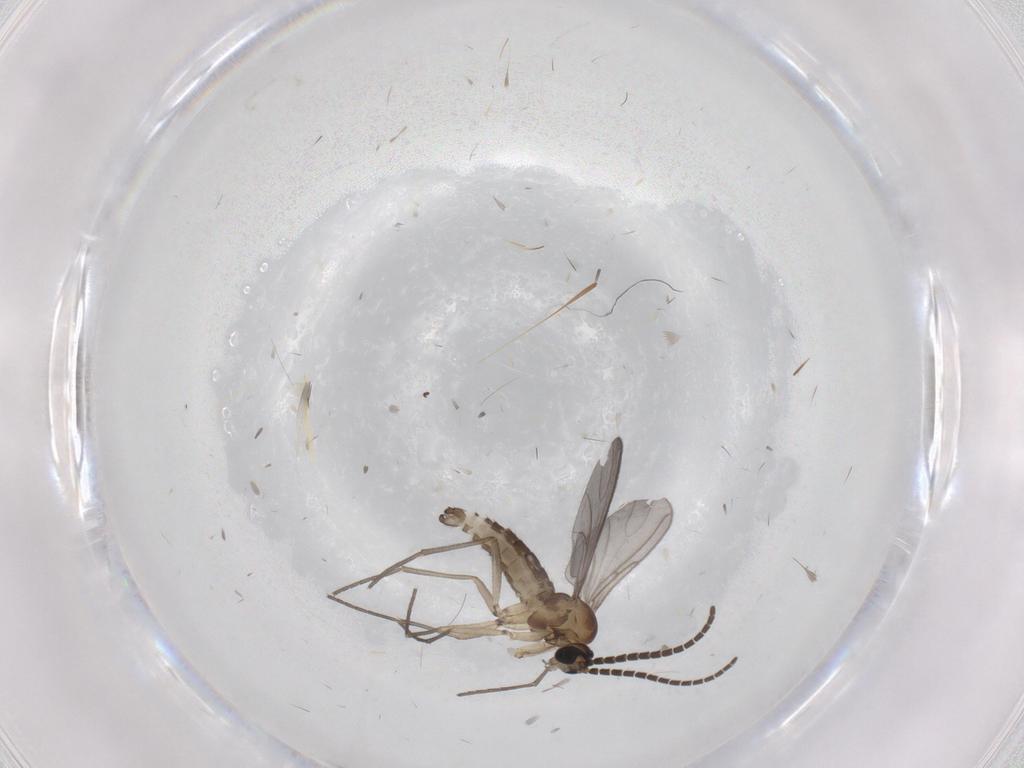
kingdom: Animalia
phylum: Arthropoda
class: Insecta
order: Diptera
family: Sciaridae
